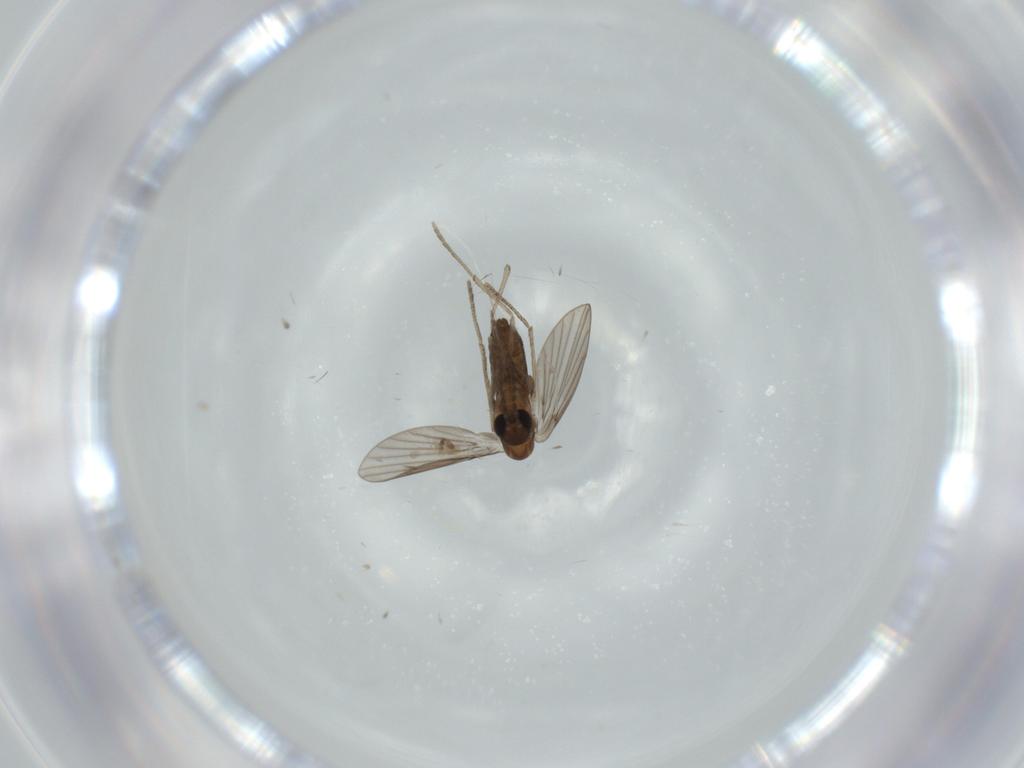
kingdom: Animalia
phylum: Arthropoda
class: Insecta
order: Diptera
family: Psychodidae
